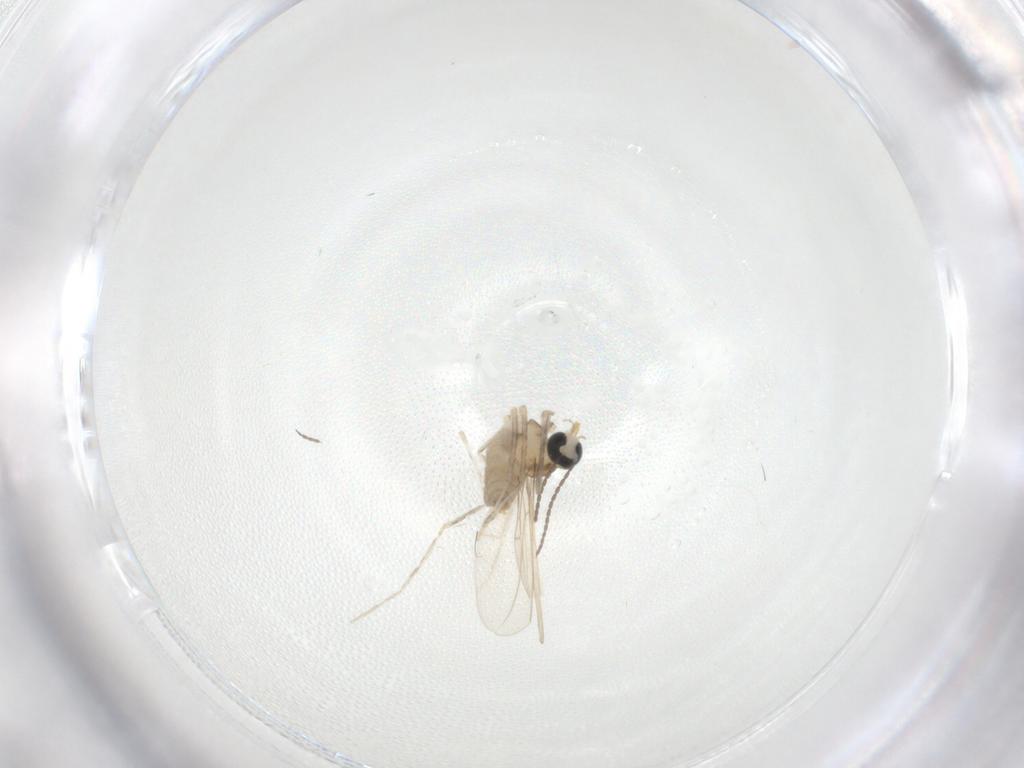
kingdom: Animalia
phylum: Arthropoda
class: Insecta
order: Diptera
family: Cecidomyiidae
